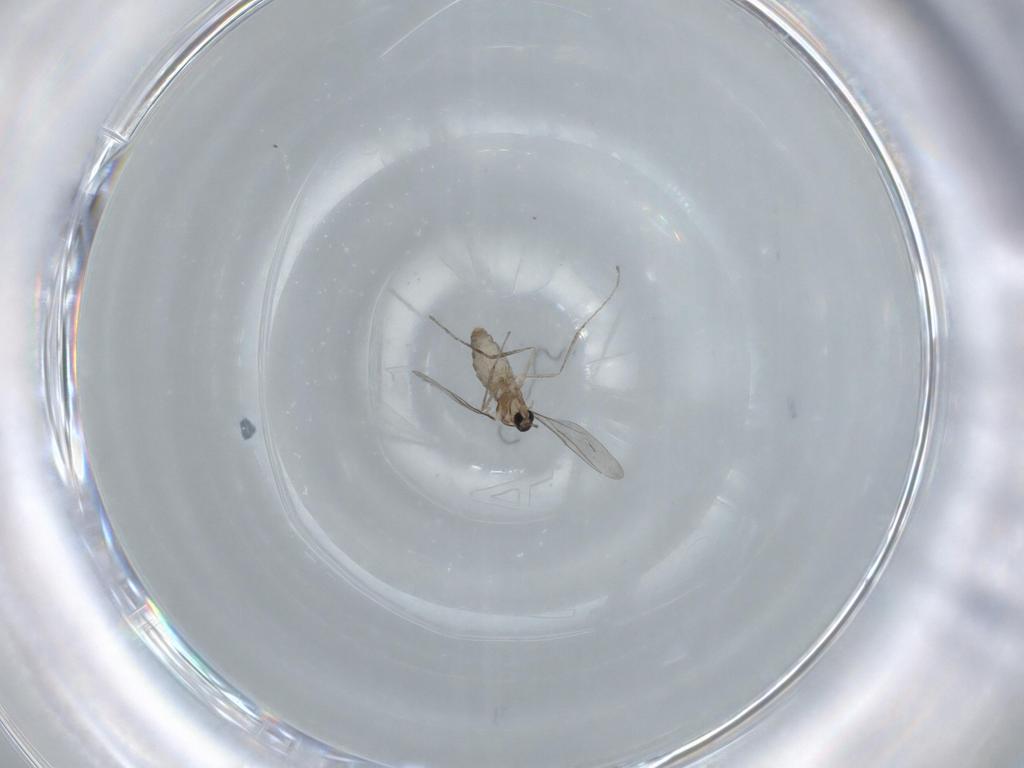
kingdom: Animalia
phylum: Arthropoda
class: Insecta
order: Diptera
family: Cecidomyiidae
